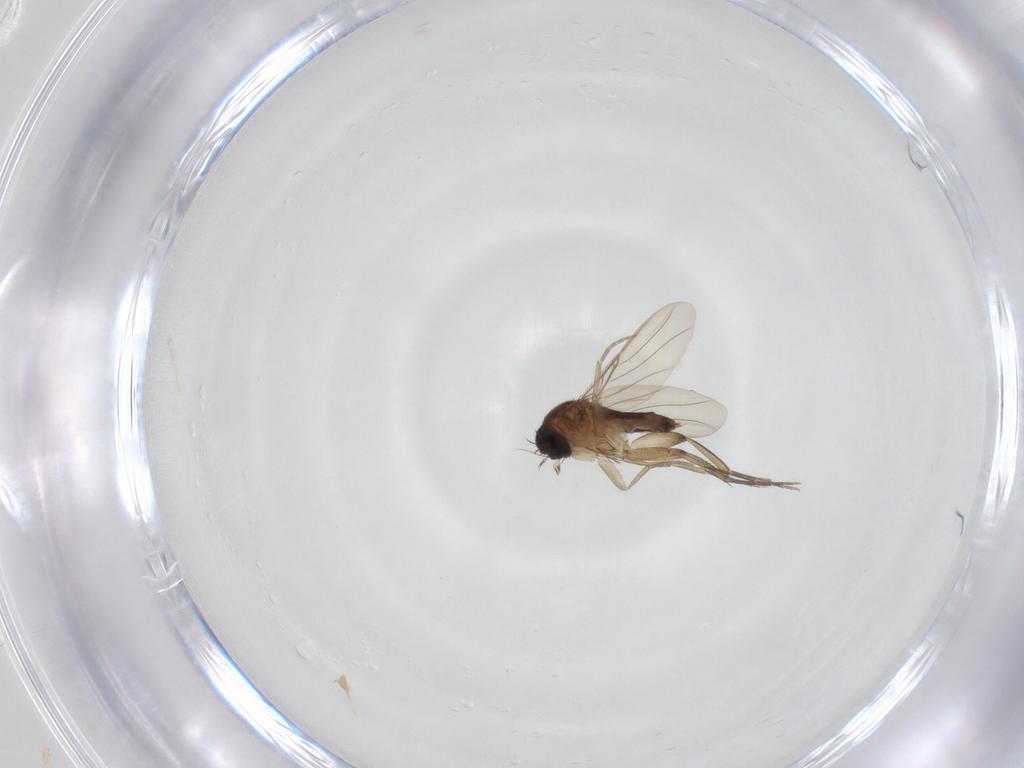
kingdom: Animalia
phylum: Arthropoda
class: Insecta
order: Diptera
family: Phoridae
